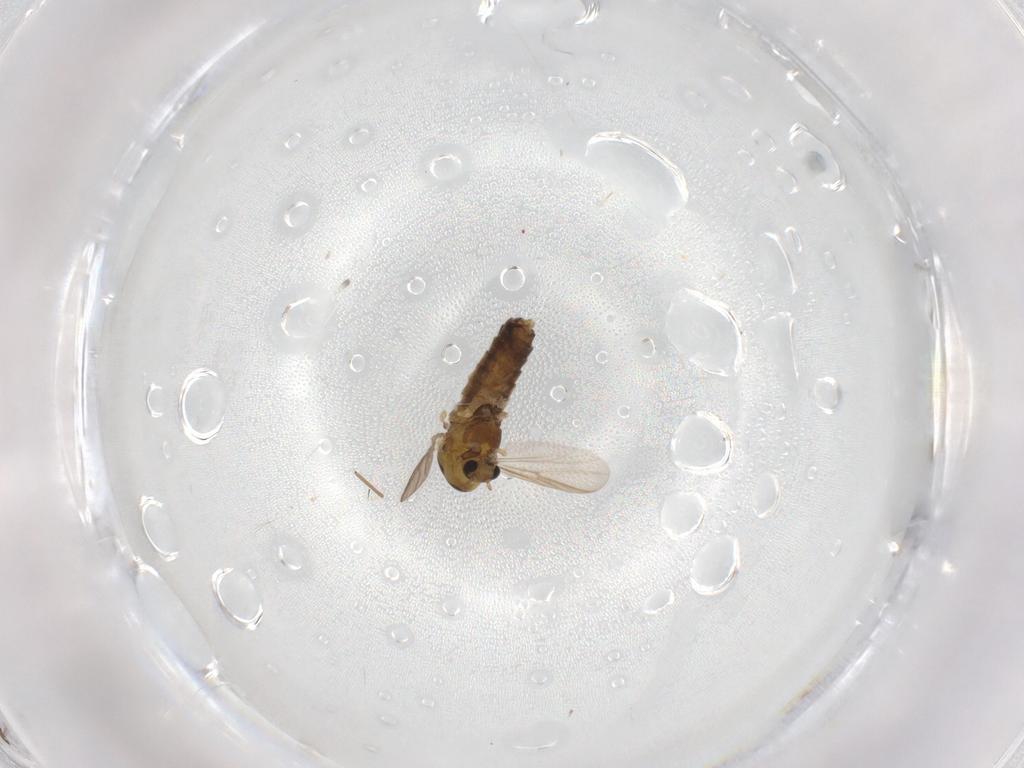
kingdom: Animalia
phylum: Arthropoda
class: Insecta
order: Diptera
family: Chironomidae
